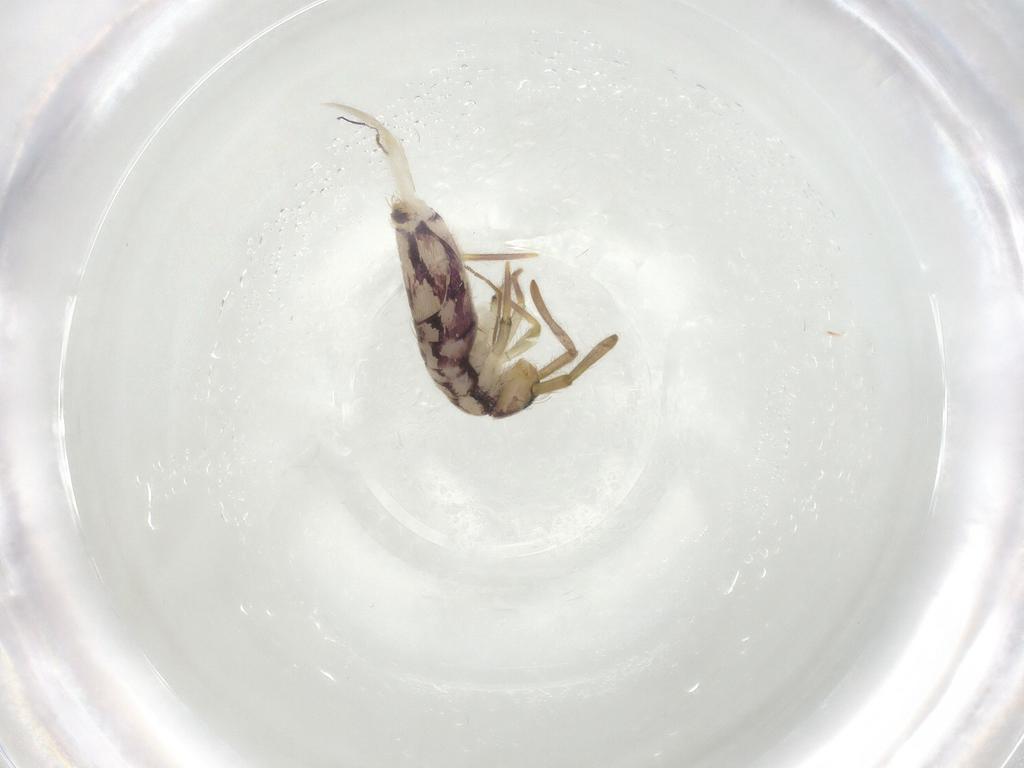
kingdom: Animalia
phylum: Arthropoda
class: Collembola
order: Entomobryomorpha
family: Entomobryidae
